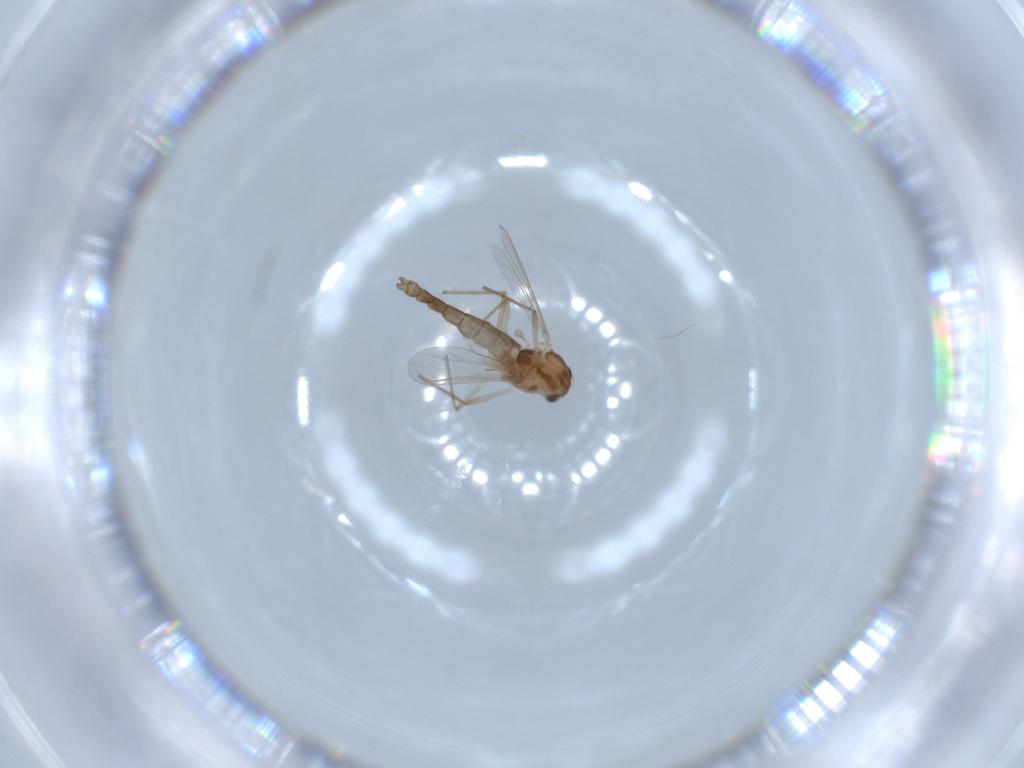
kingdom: Animalia
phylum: Arthropoda
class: Insecta
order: Diptera
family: Chironomidae
